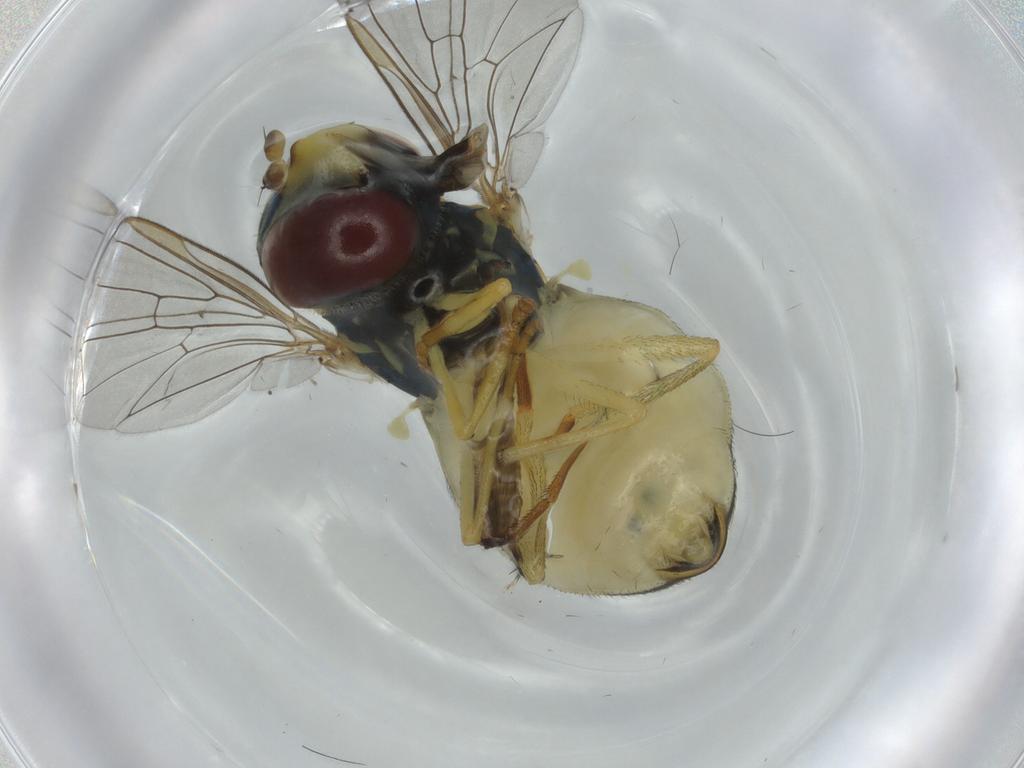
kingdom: Animalia
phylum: Arthropoda
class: Insecta
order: Diptera
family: Syrphidae
